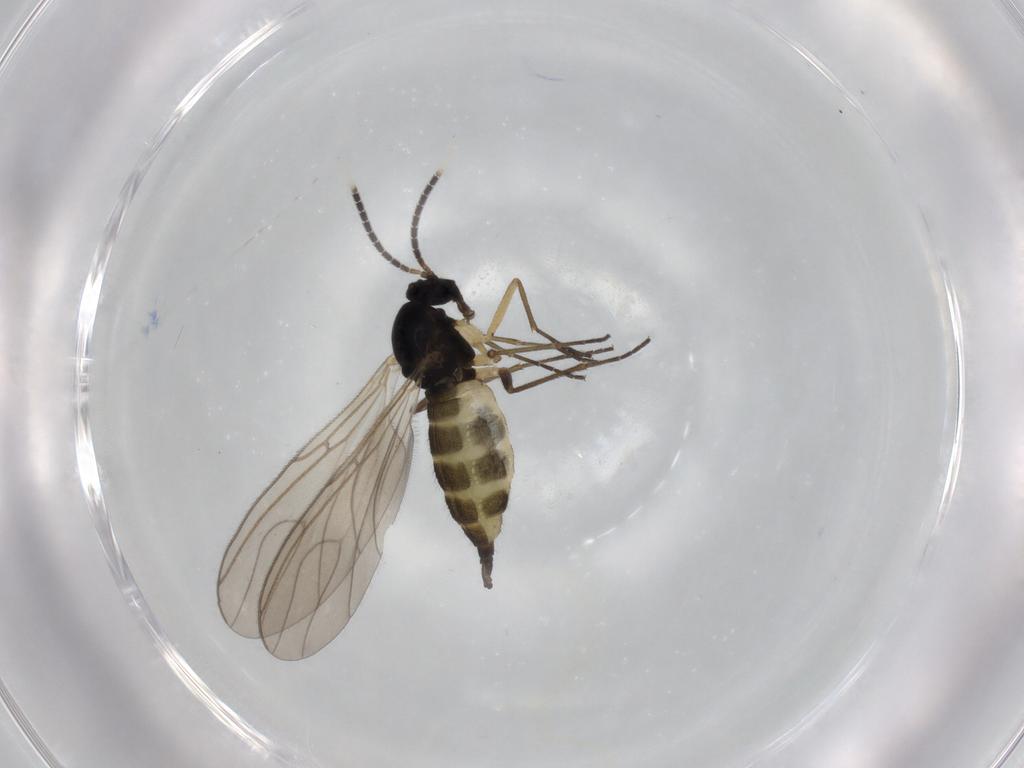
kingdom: Animalia
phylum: Arthropoda
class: Insecta
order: Diptera
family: Sciaridae
